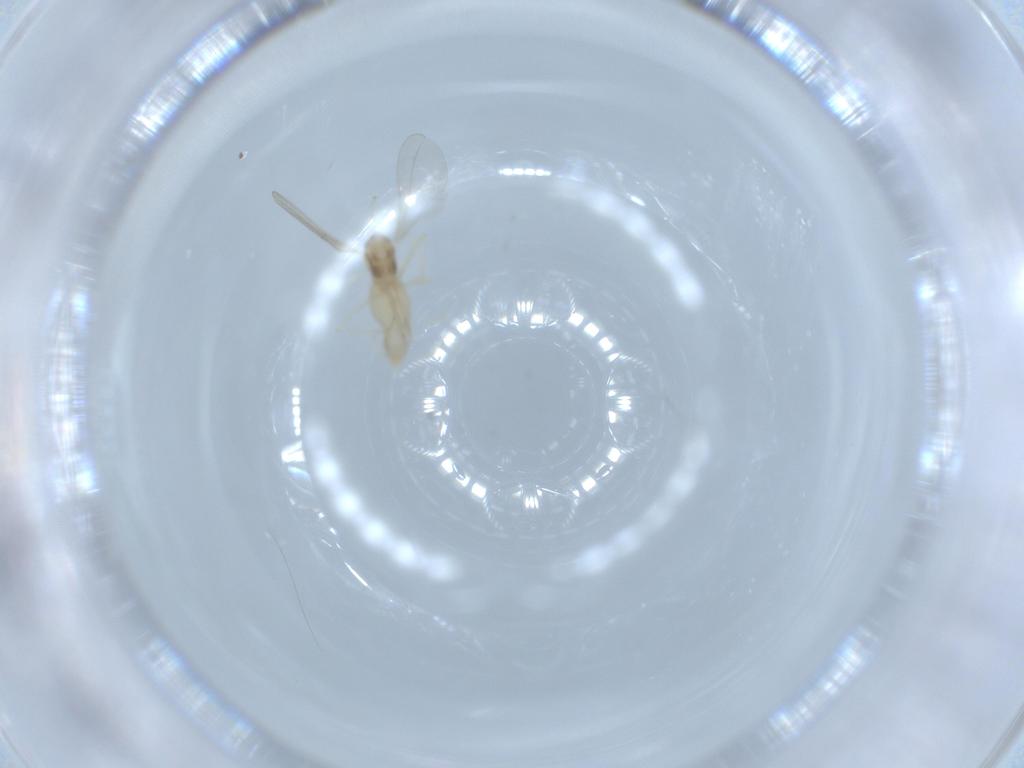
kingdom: Animalia
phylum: Arthropoda
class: Insecta
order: Diptera
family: Cecidomyiidae
